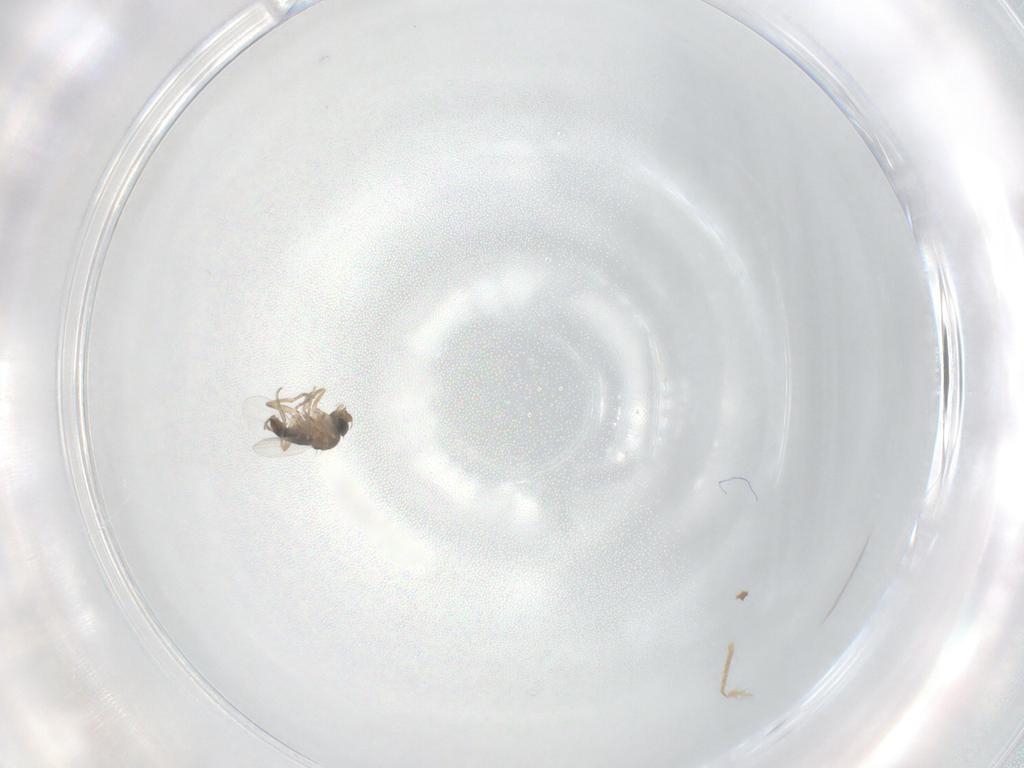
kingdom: Animalia
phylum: Arthropoda
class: Insecta
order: Diptera
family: Phoridae
